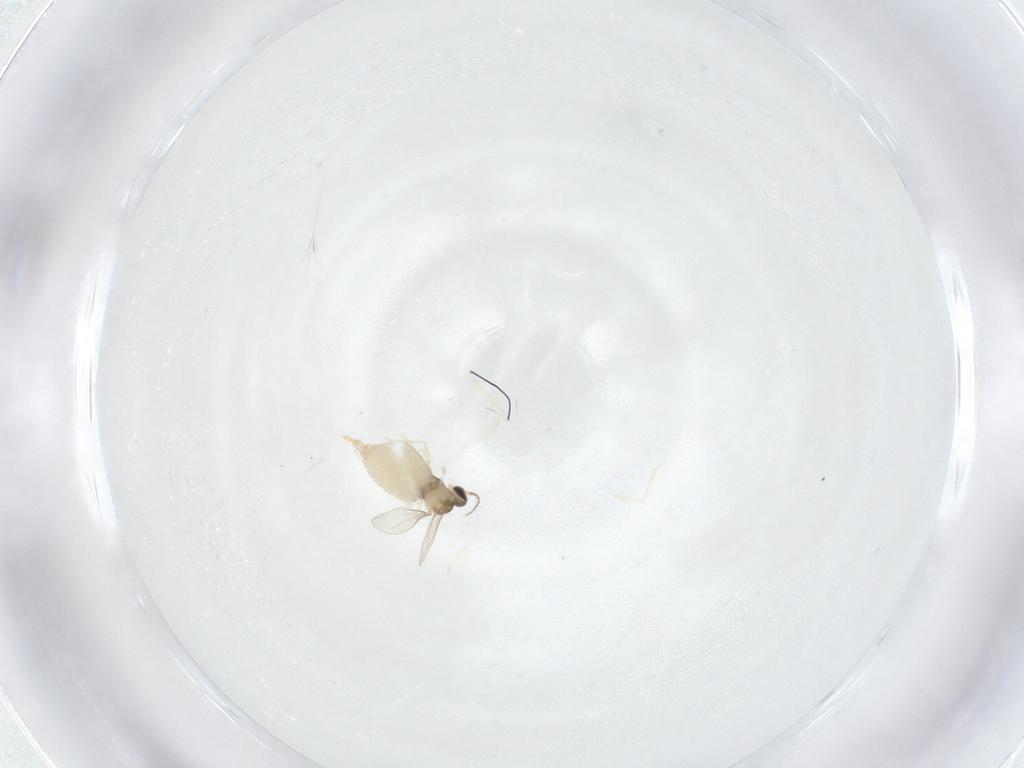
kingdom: Animalia
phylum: Arthropoda
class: Insecta
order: Diptera
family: Cecidomyiidae
